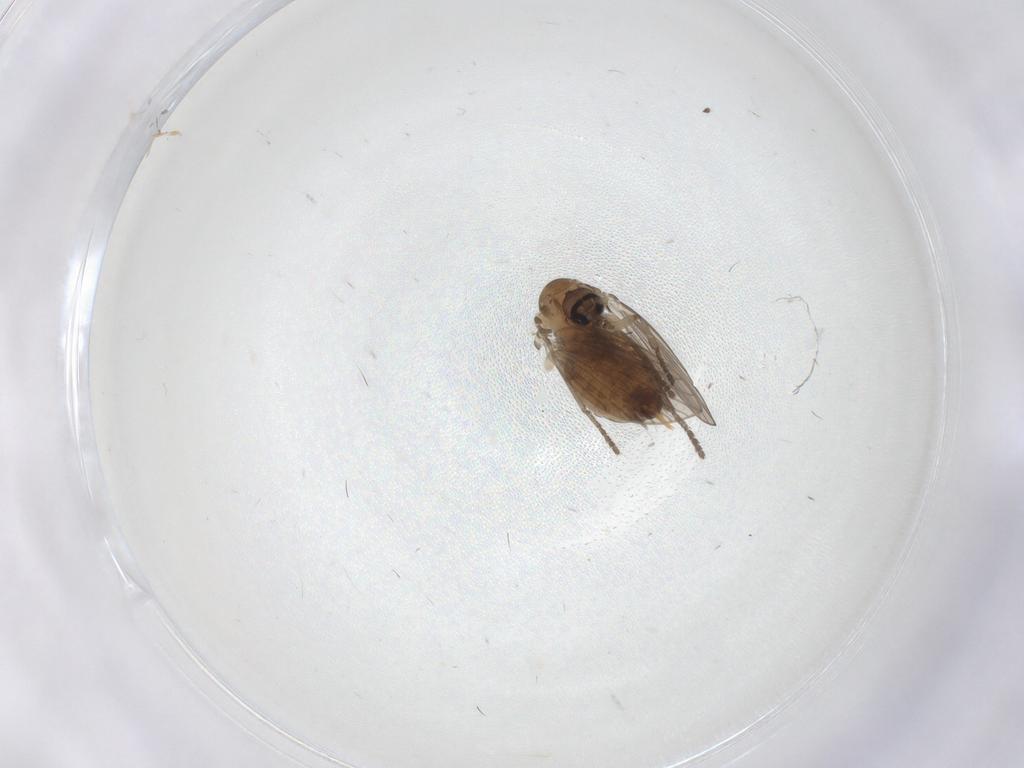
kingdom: Animalia
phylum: Arthropoda
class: Insecta
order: Diptera
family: Psychodidae
